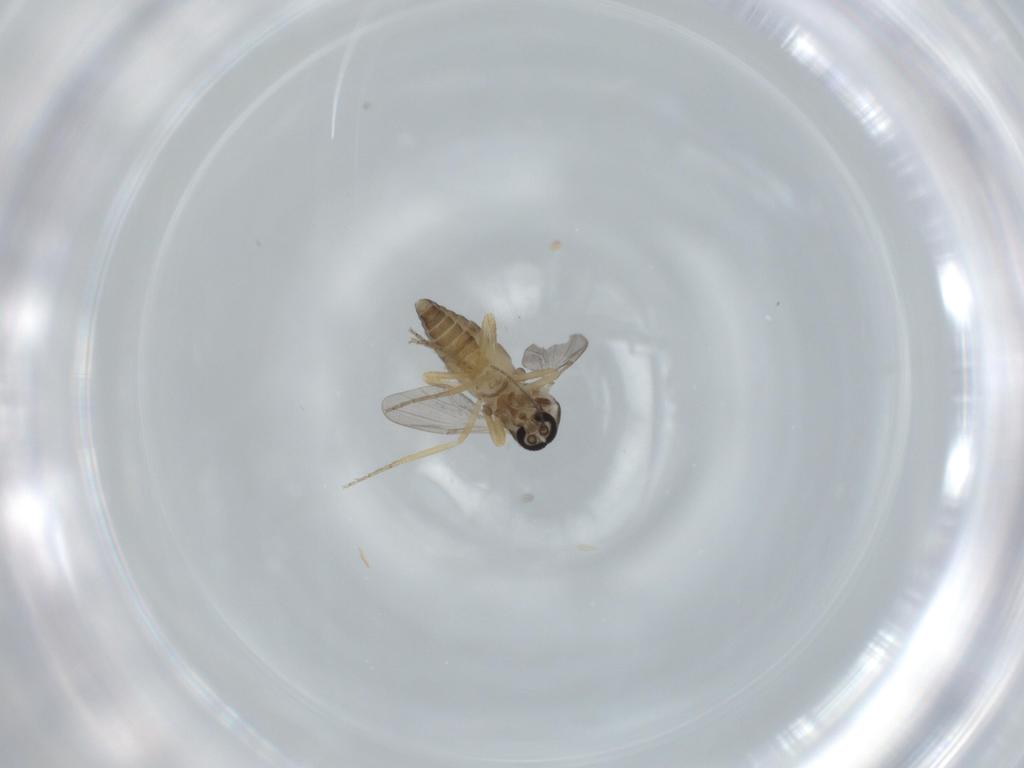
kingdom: Animalia
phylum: Arthropoda
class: Insecta
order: Diptera
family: Ceratopogonidae
